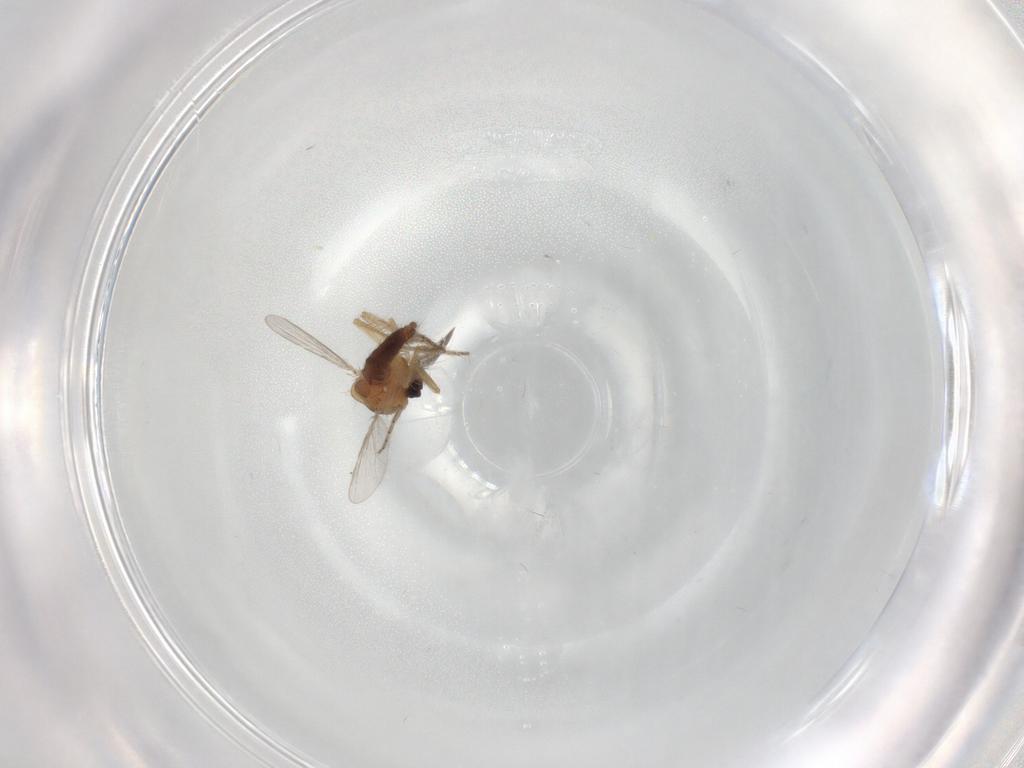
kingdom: Animalia
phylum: Arthropoda
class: Insecta
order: Diptera
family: Ceratopogonidae
